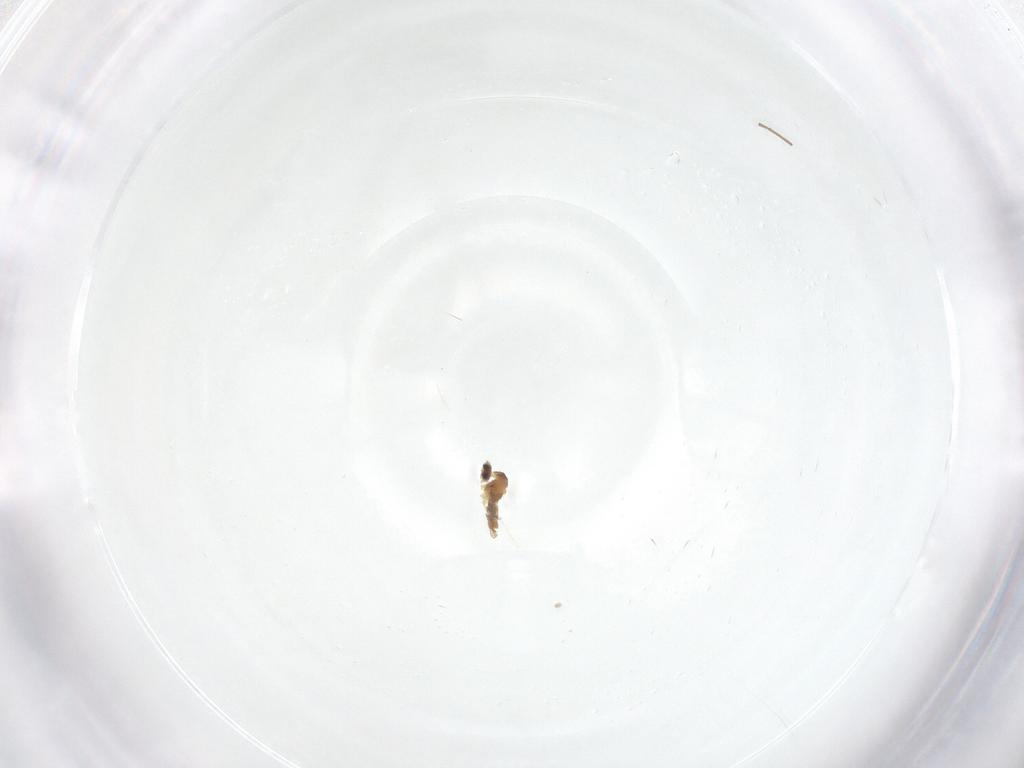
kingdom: Animalia
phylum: Arthropoda
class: Insecta
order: Diptera
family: Cecidomyiidae
